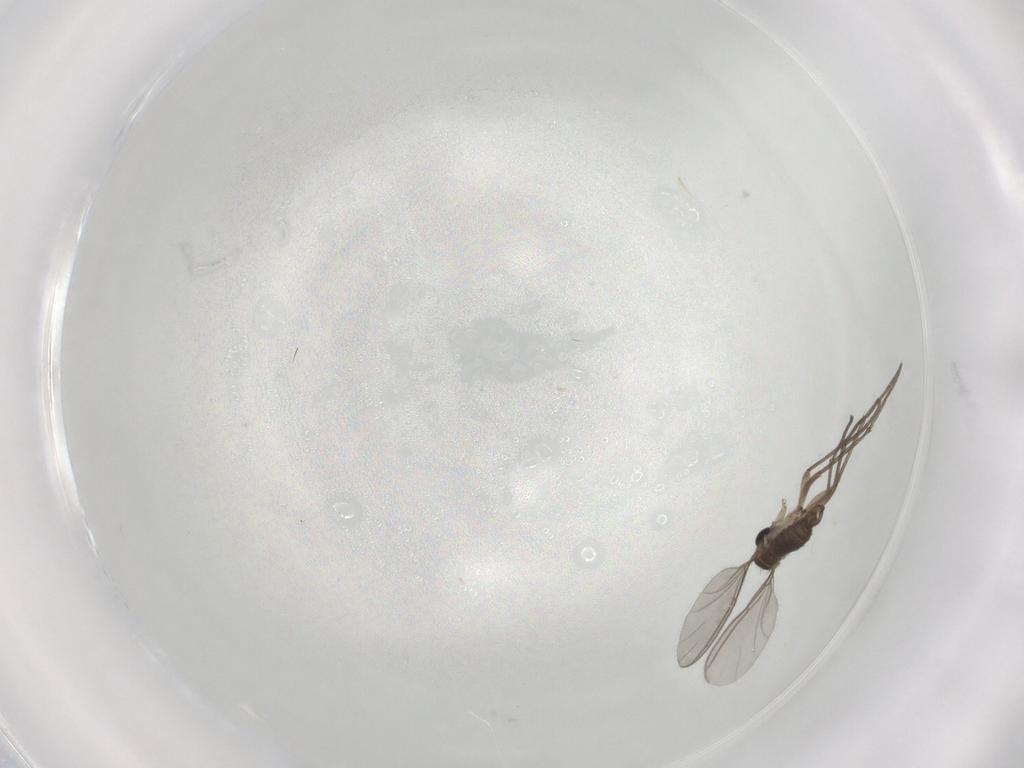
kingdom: Animalia
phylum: Arthropoda
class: Insecta
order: Diptera
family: Sciaridae
